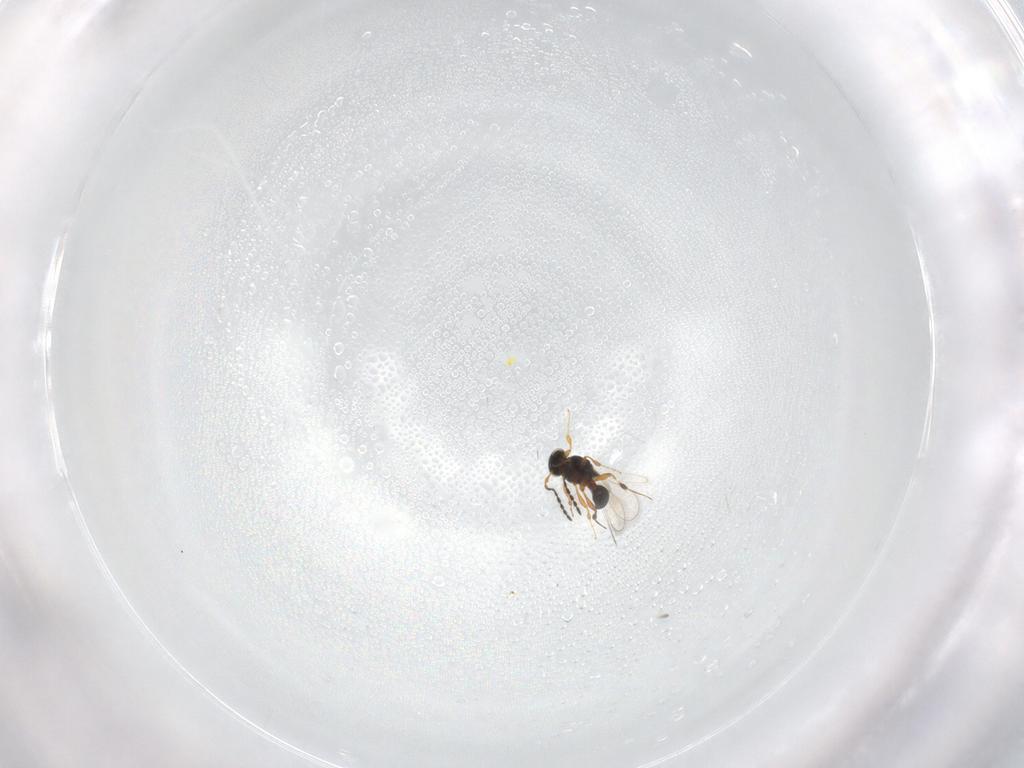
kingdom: Animalia
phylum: Arthropoda
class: Insecta
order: Hymenoptera
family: Platygastridae
